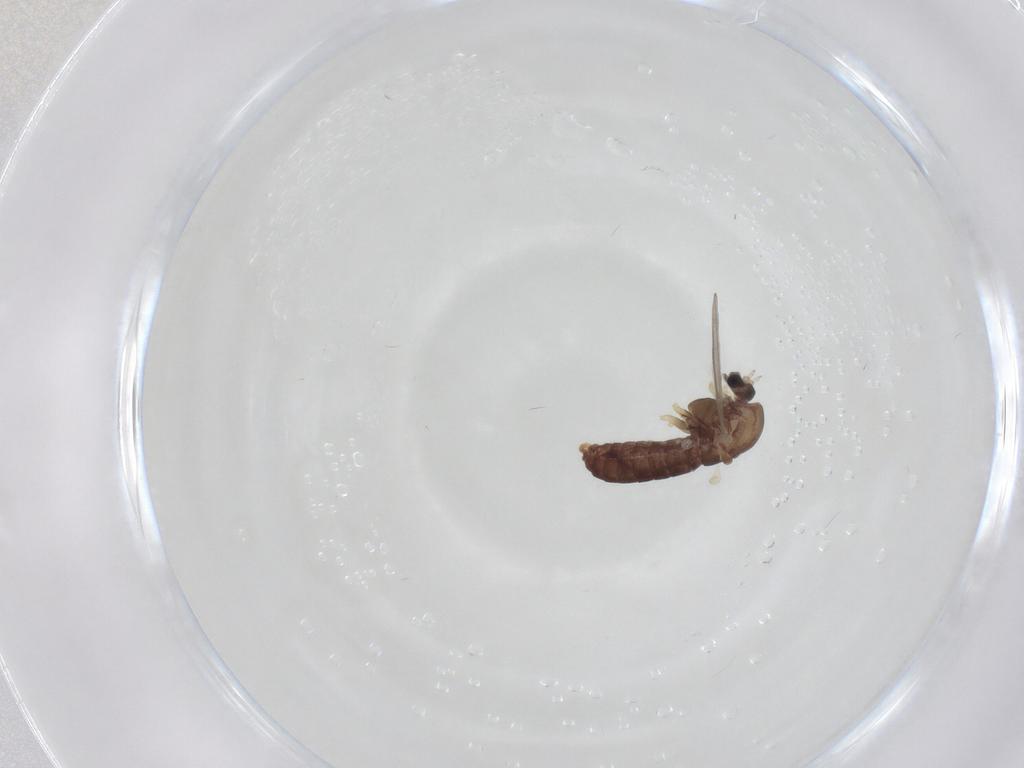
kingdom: Animalia
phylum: Arthropoda
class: Insecta
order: Diptera
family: Chironomidae
